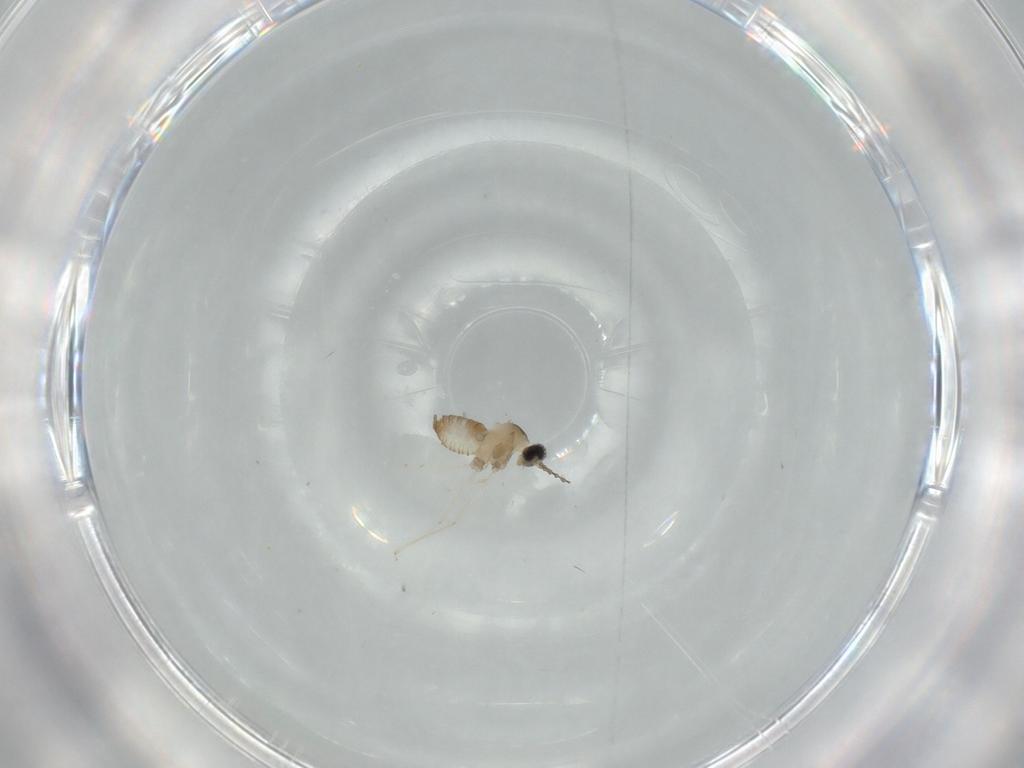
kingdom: Animalia
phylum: Arthropoda
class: Insecta
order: Diptera
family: Cecidomyiidae
